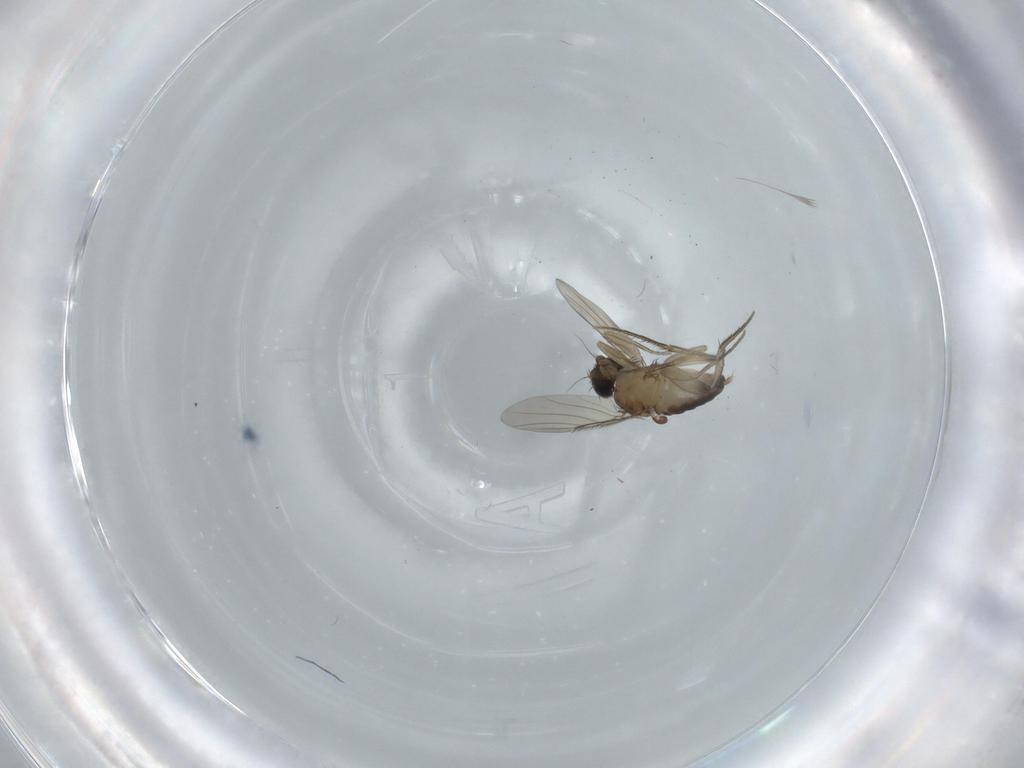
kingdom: Animalia
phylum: Arthropoda
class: Insecta
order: Diptera
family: Phoridae
